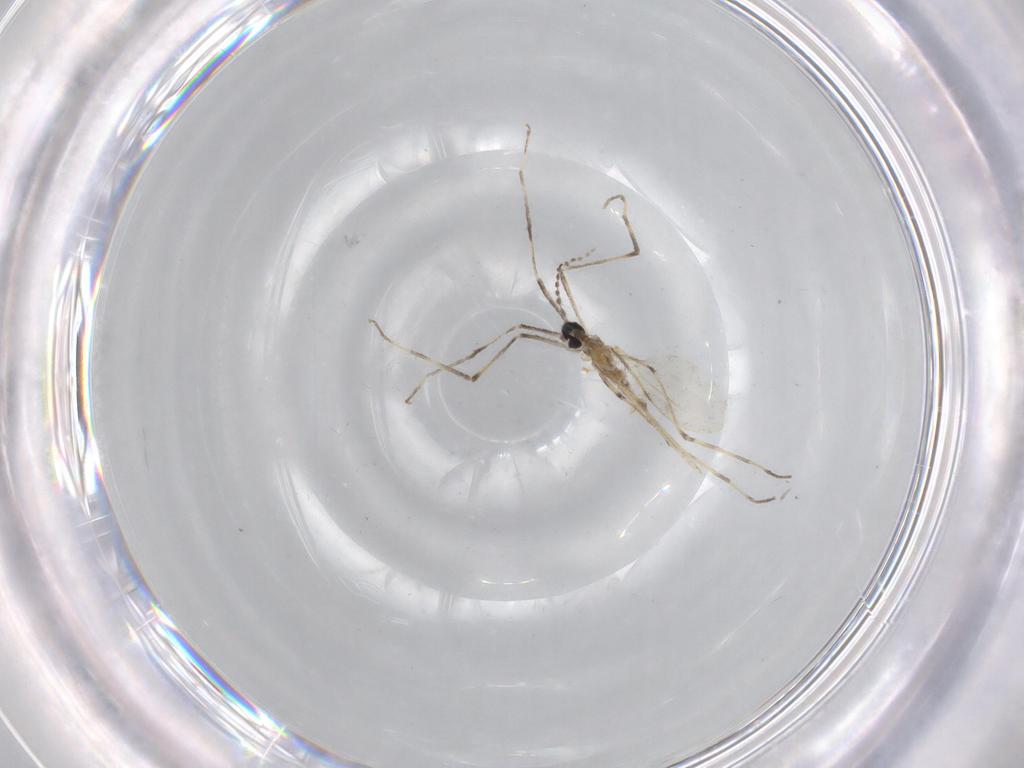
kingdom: Animalia
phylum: Arthropoda
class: Insecta
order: Diptera
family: Cecidomyiidae
